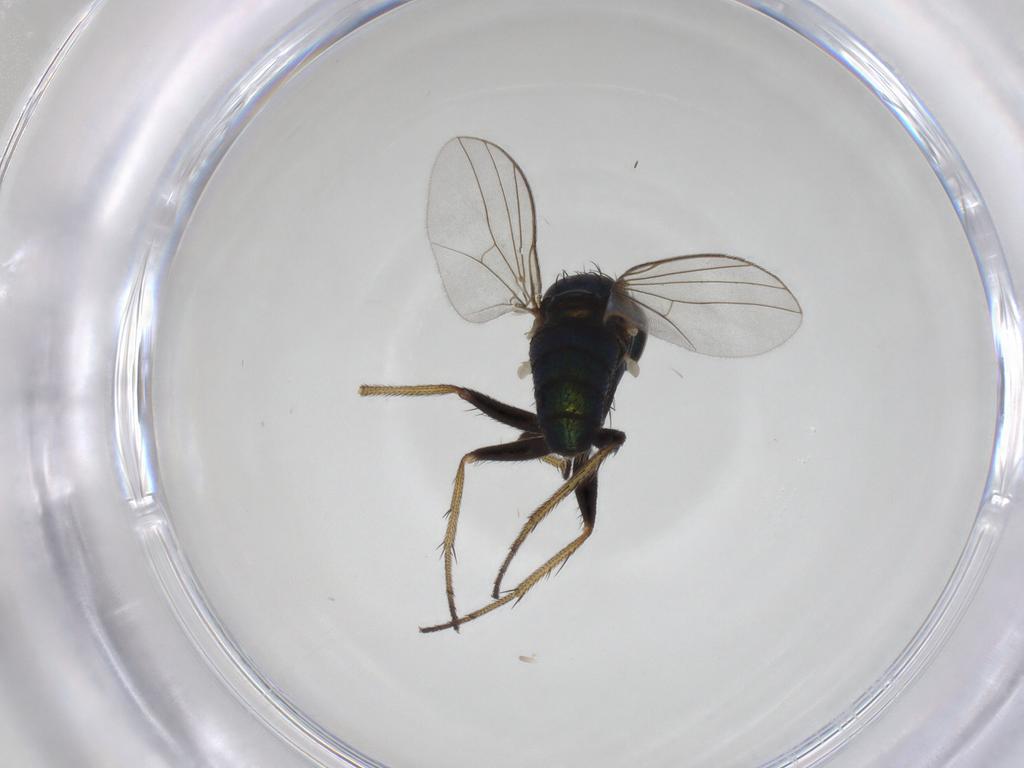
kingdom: Animalia
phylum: Arthropoda
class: Insecta
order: Diptera
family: Dolichopodidae
